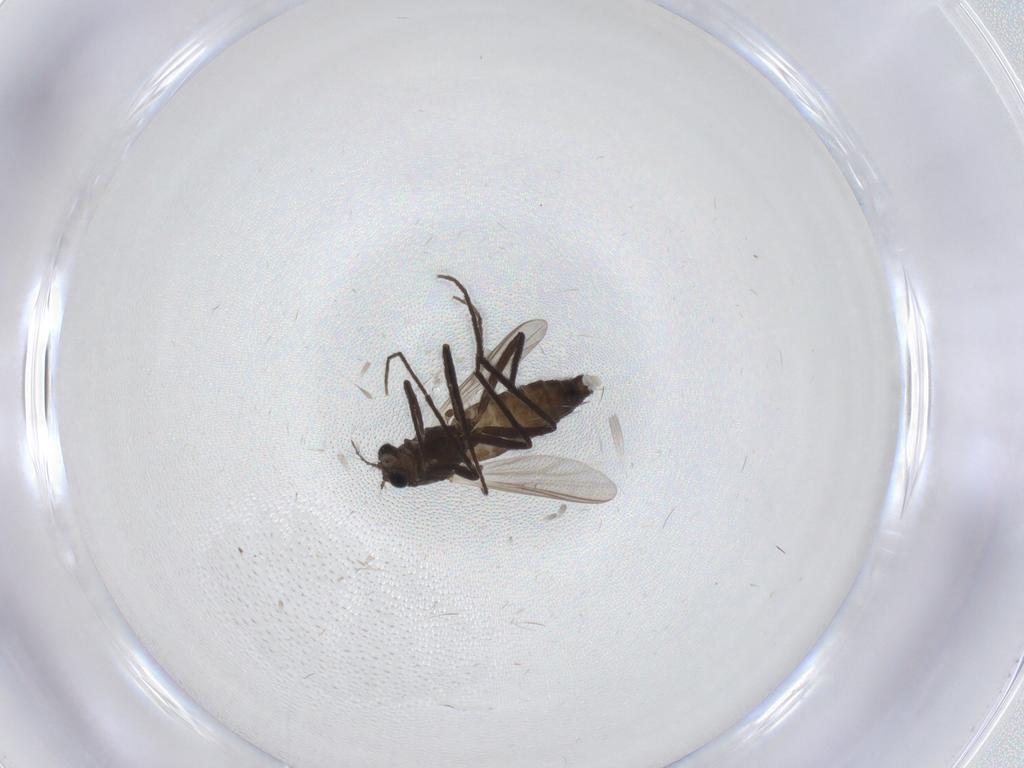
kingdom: Animalia
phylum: Arthropoda
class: Insecta
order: Diptera
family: Chironomidae
